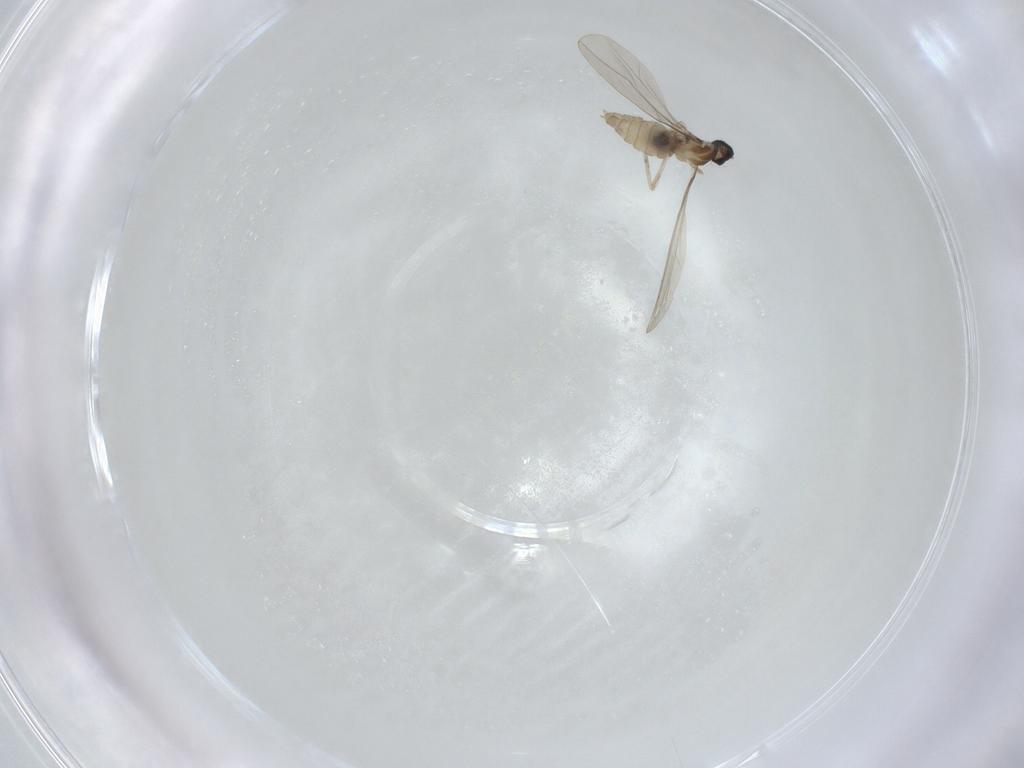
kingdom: Animalia
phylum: Arthropoda
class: Insecta
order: Diptera
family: Cecidomyiidae
